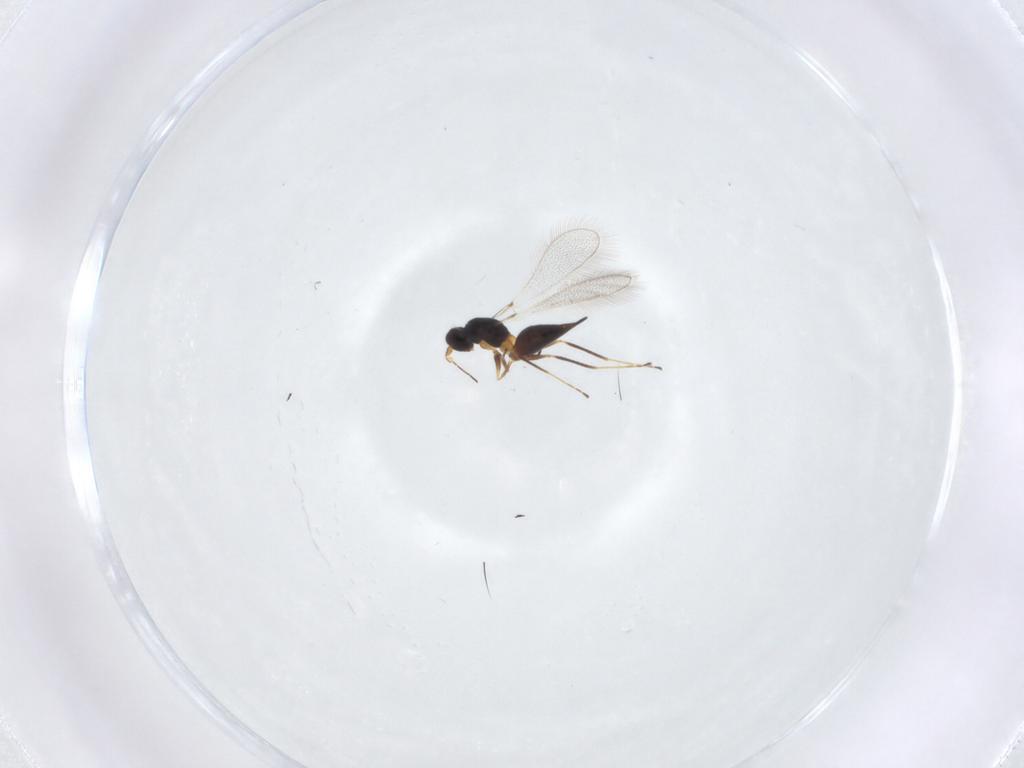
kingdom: Animalia
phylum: Arthropoda
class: Insecta
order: Hymenoptera
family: Mymaridae
